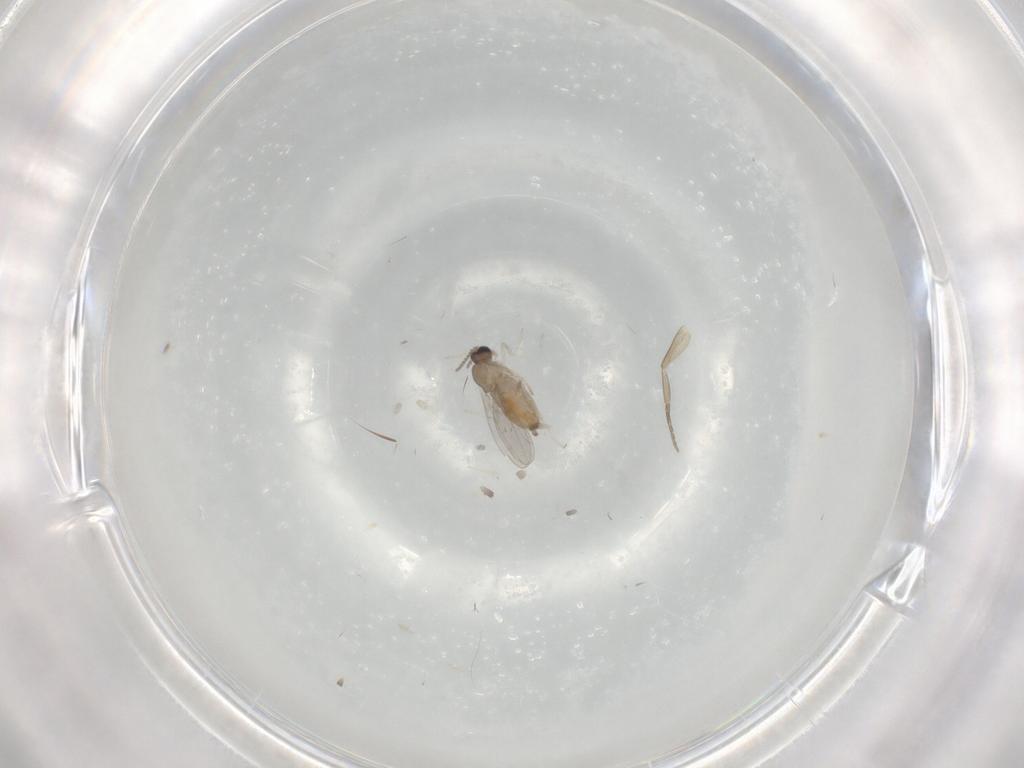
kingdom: Animalia
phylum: Arthropoda
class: Insecta
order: Diptera
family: Cecidomyiidae
